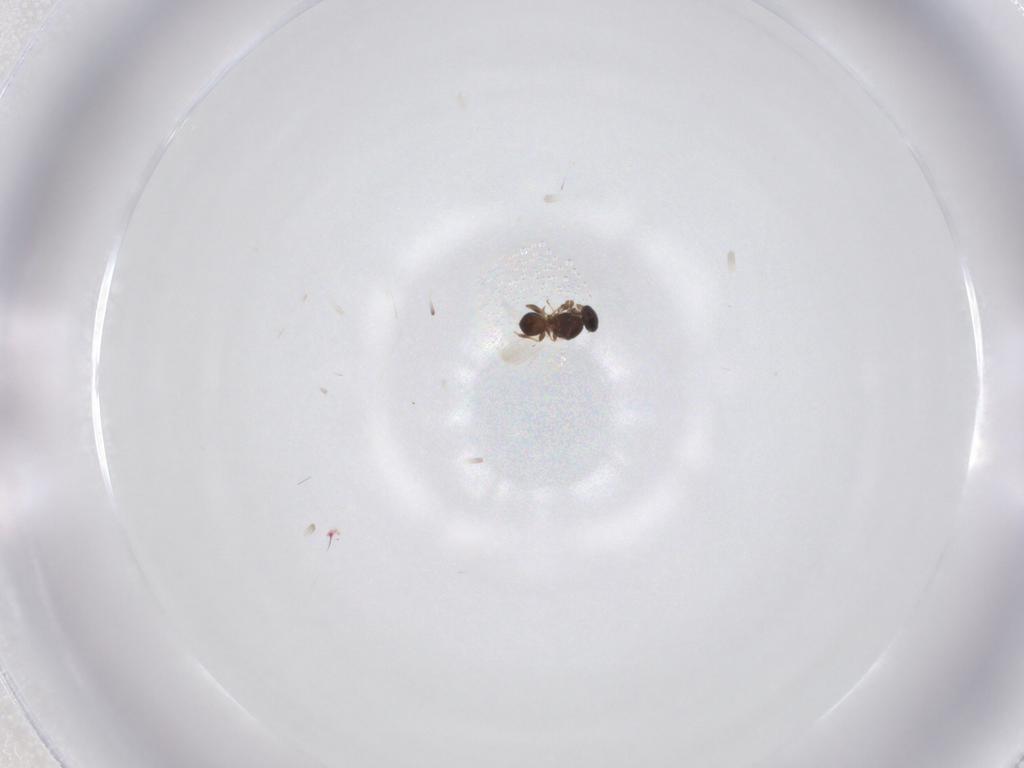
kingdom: Animalia
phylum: Arthropoda
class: Insecta
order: Hymenoptera
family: Platygastridae
